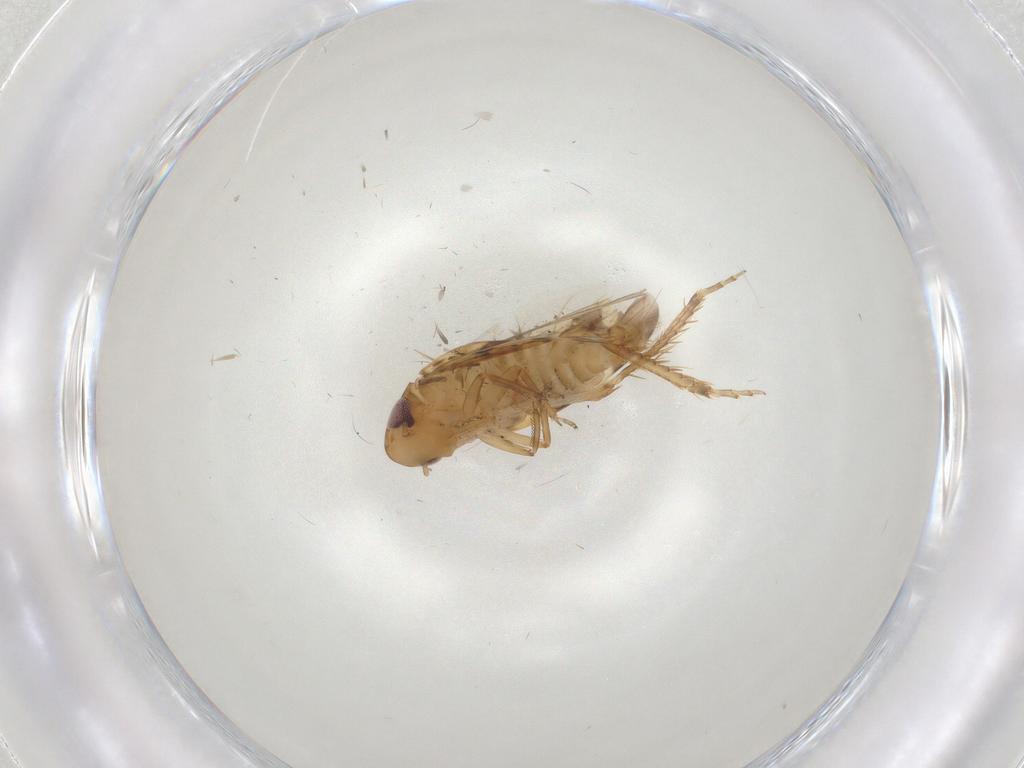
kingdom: Animalia
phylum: Arthropoda
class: Insecta
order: Hemiptera
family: Cicadellidae
